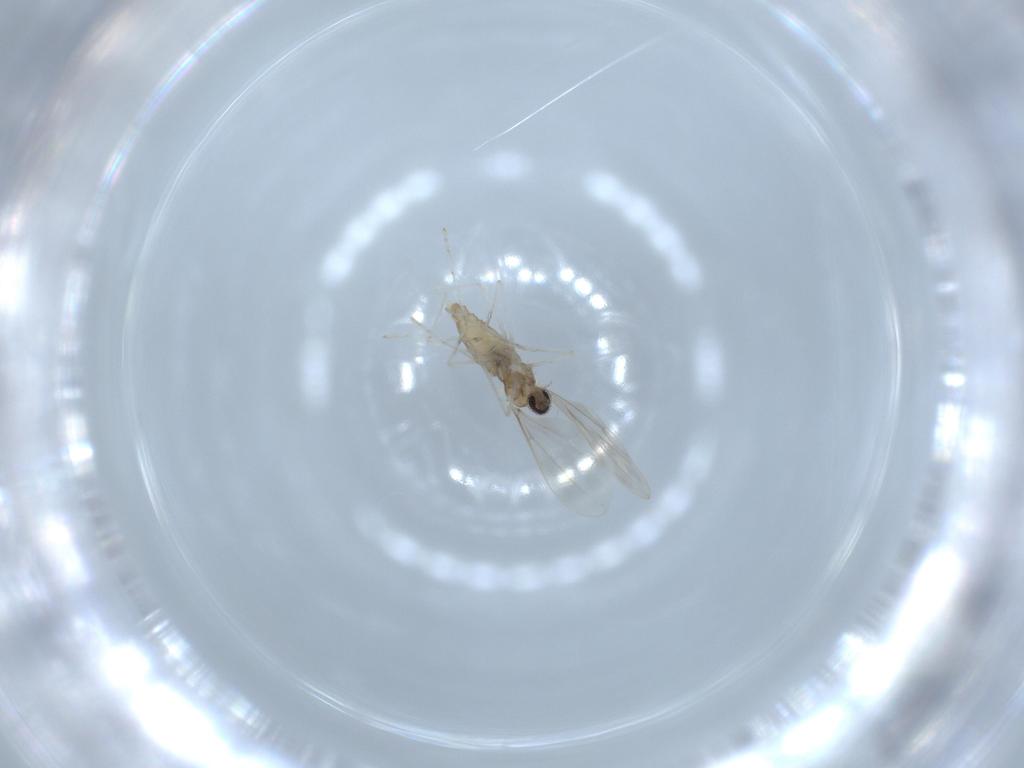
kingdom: Animalia
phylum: Arthropoda
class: Insecta
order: Diptera
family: Cecidomyiidae
